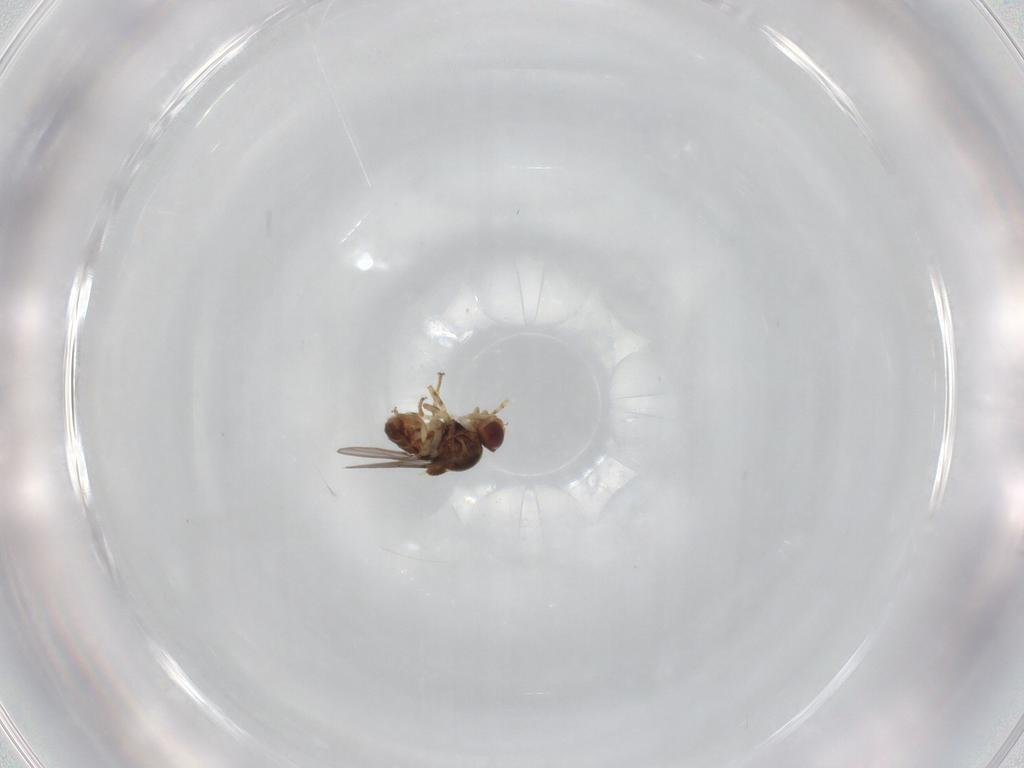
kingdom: Animalia
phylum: Arthropoda
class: Insecta
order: Diptera
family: Chloropidae
